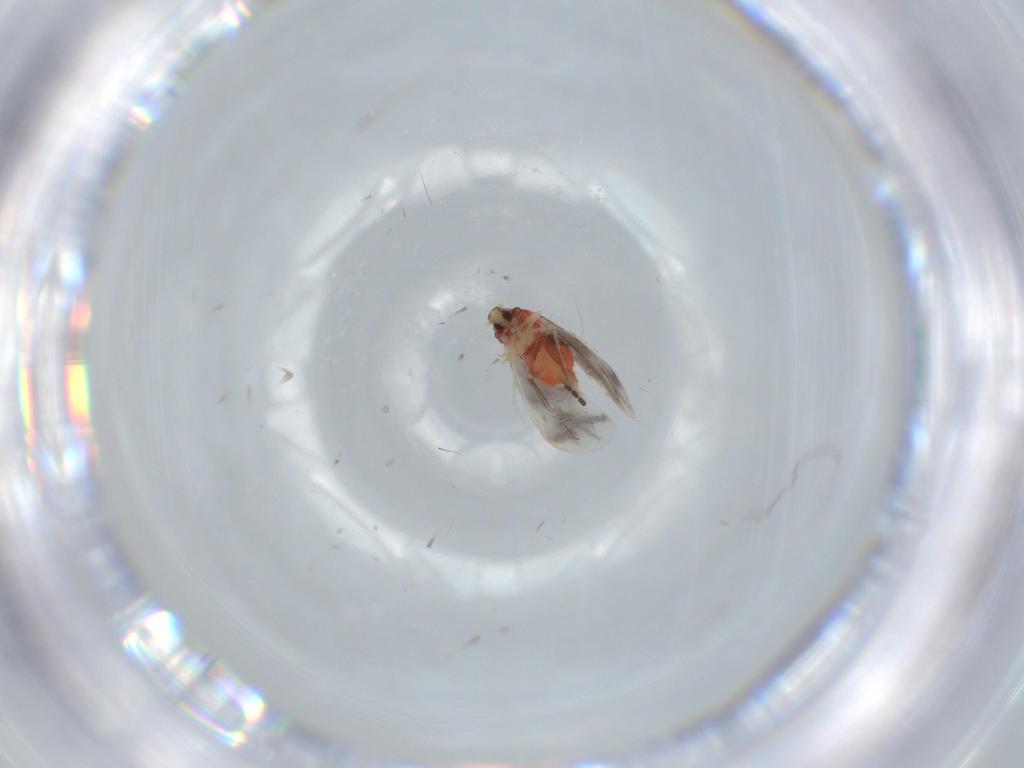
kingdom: Animalia
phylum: Arthropoda
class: Insecta
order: Hemiptera
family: Aleyrodidae
